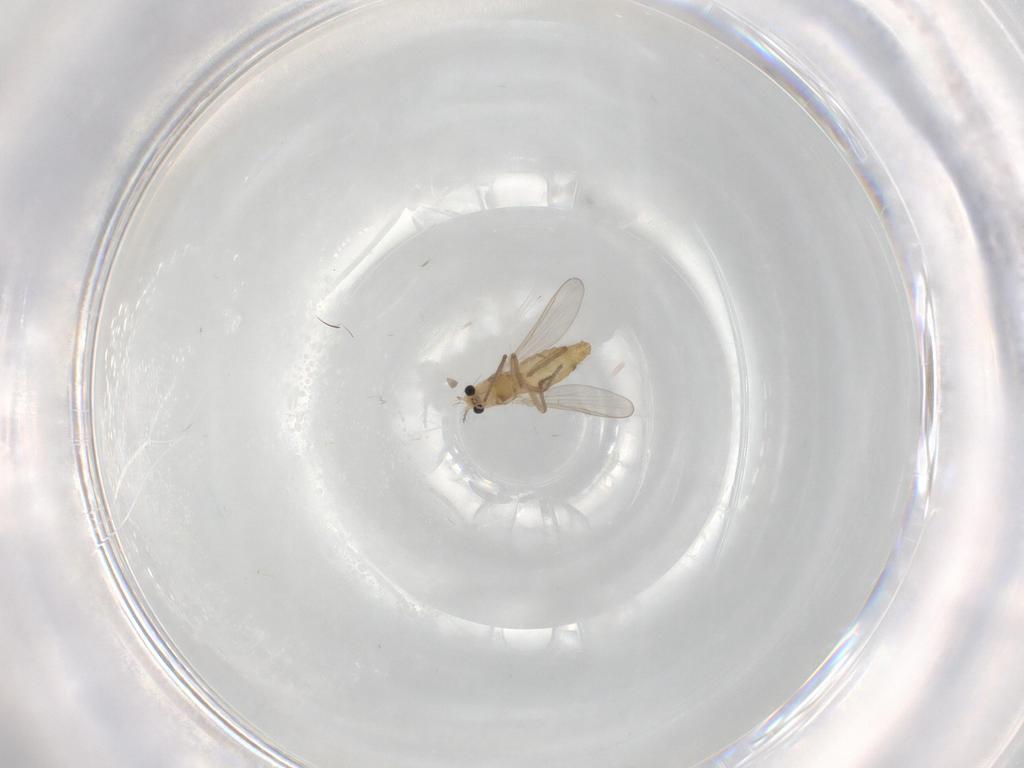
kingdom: Animalia
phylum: Arthropoda
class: Insecta
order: Diptera
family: Chironomidae
